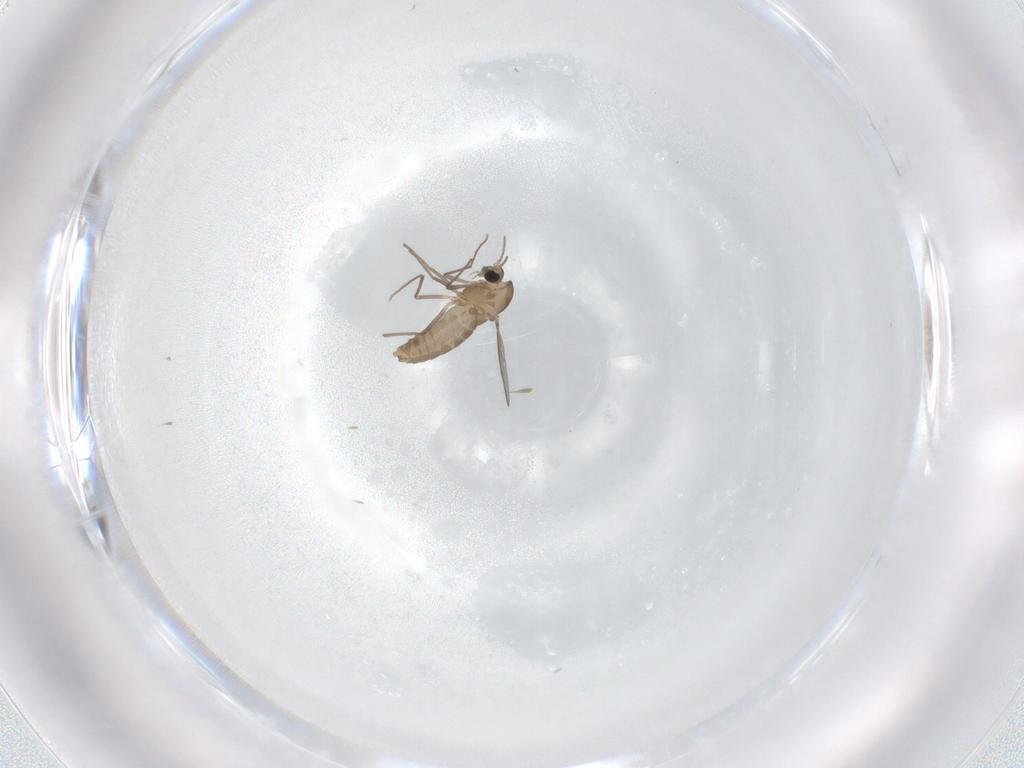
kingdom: Animalia
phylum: Arthropoda
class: Insecta
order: Diptera
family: Chironomidae
